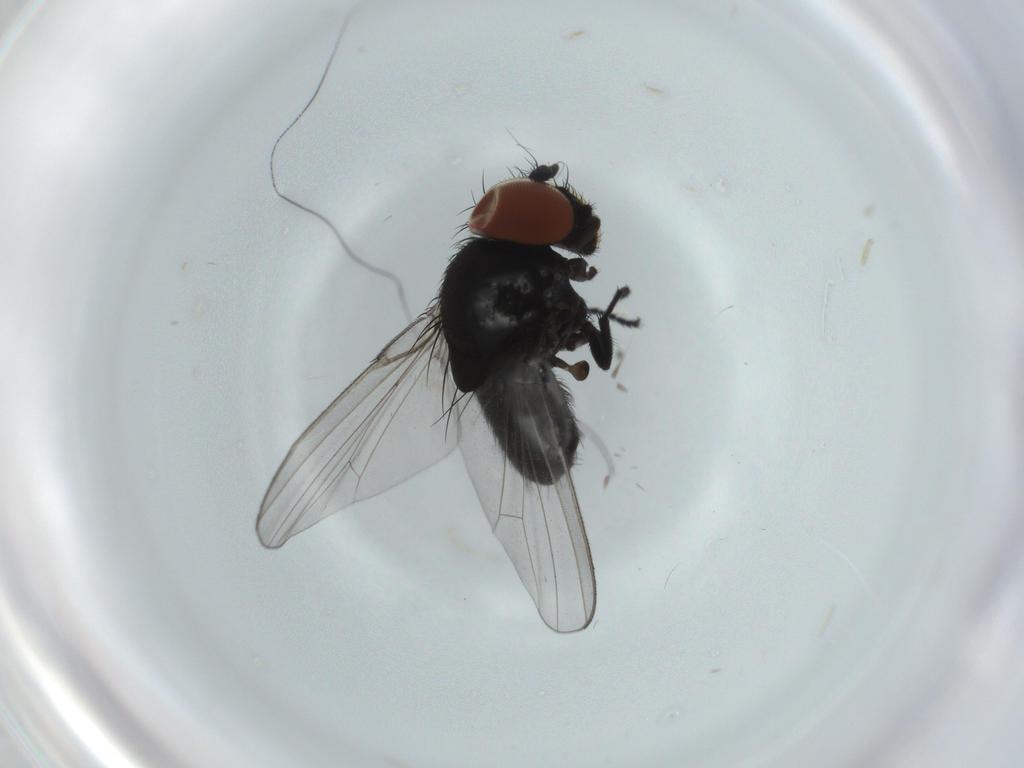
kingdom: Animalia
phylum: Arthropoda
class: Insecta
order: Diptera
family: Milichiidae
